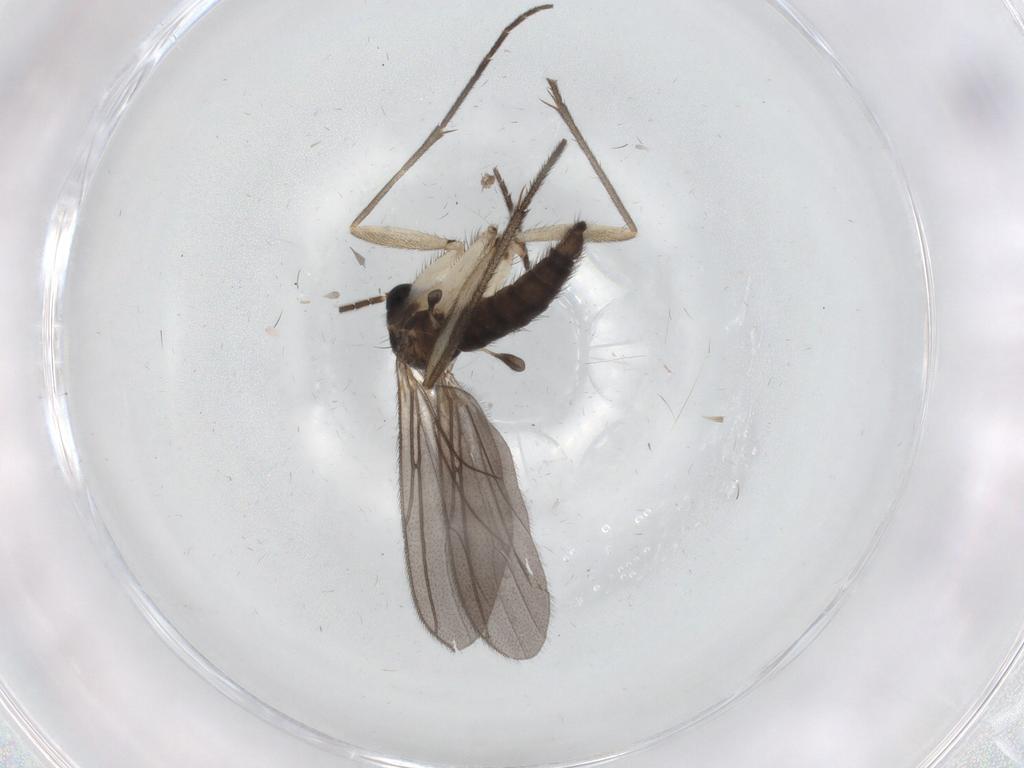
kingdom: Animalia
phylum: Arthropoda
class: Insecta
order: Diptera
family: Sciaridae
